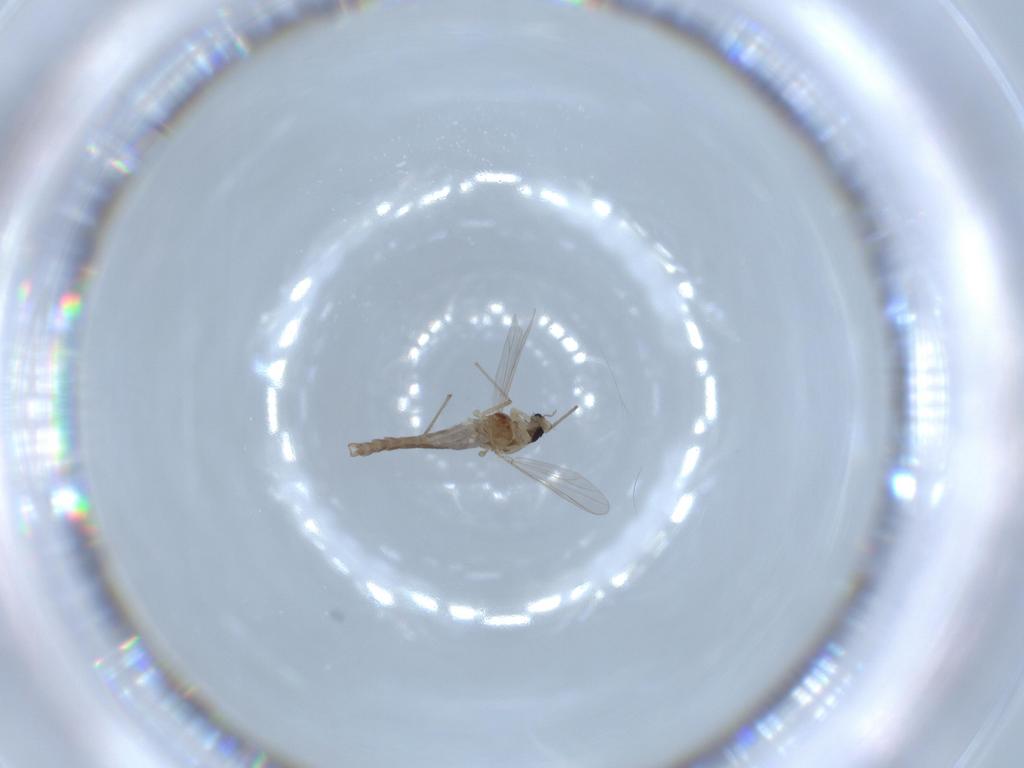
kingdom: Animalia
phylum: Arthropoda
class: Insecta
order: Diptera
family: Chironomidae
